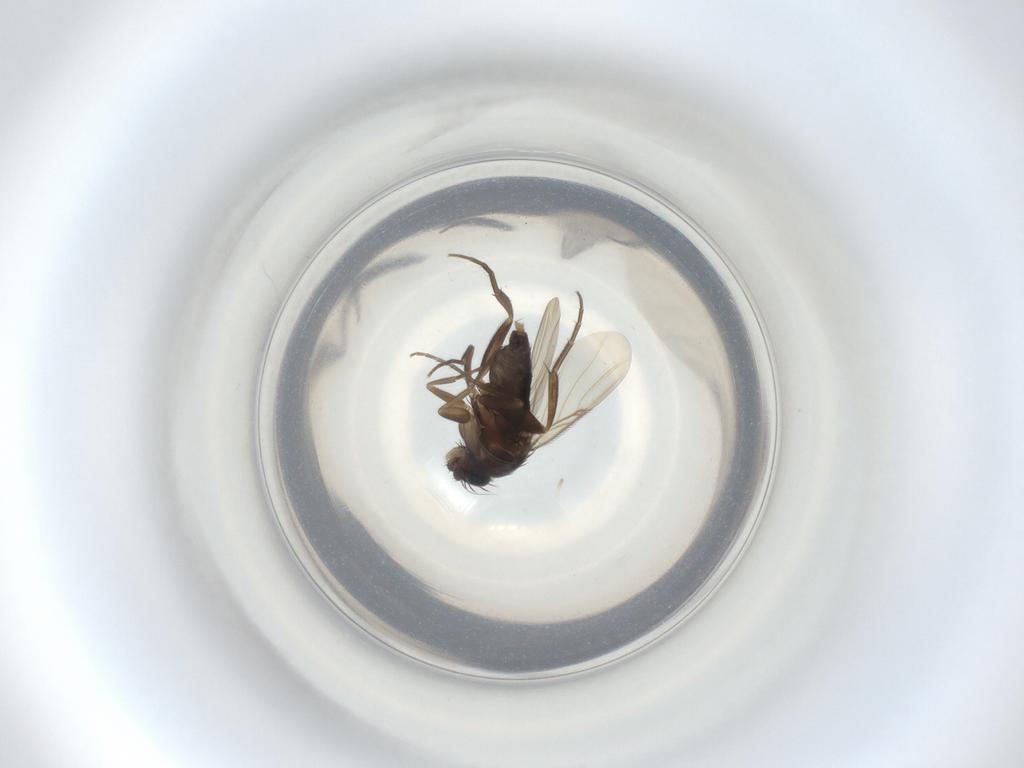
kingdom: Animalia
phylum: Arthropoda
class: Insecta
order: Diptera
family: Phoridae
